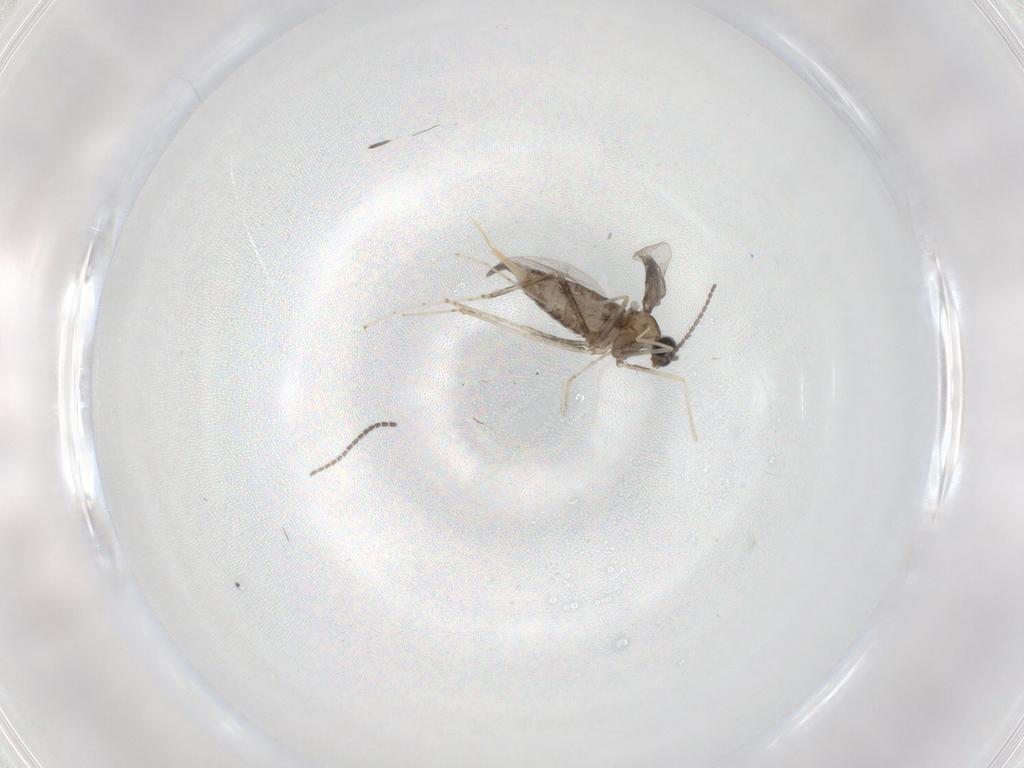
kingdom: Animalia
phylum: Arthropoda
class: Insecta
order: Diptera
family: Cecidomyiidae
